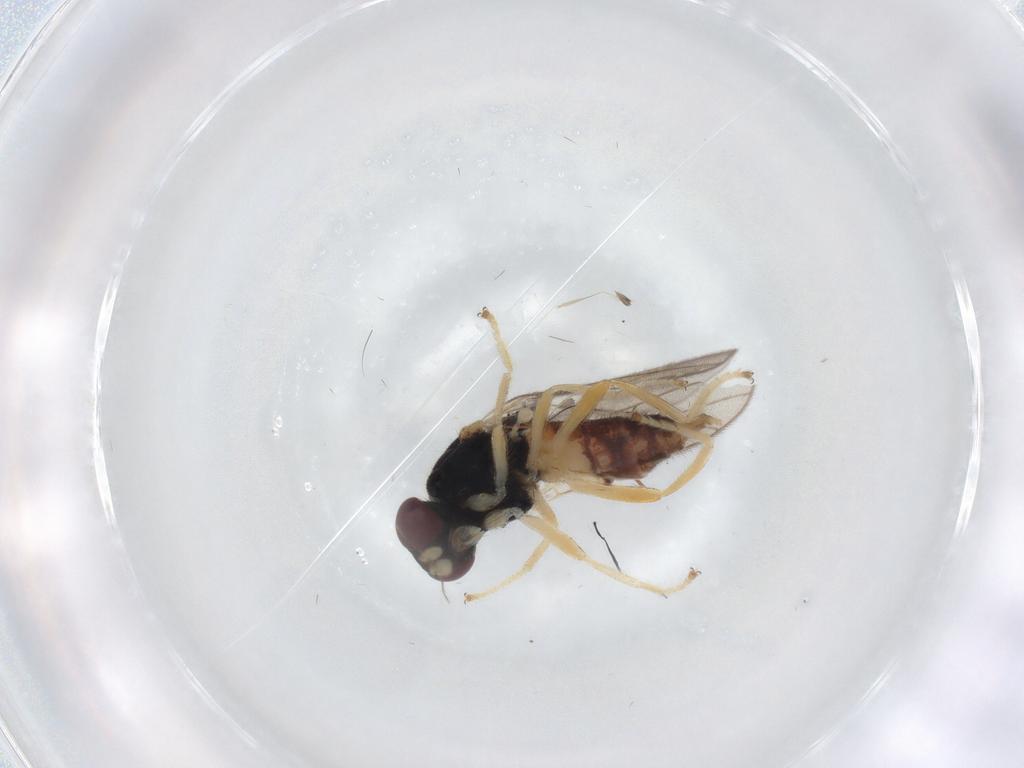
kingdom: Animalia
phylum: Arthropoda
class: Insecta
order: Diptera
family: Chloropidae
